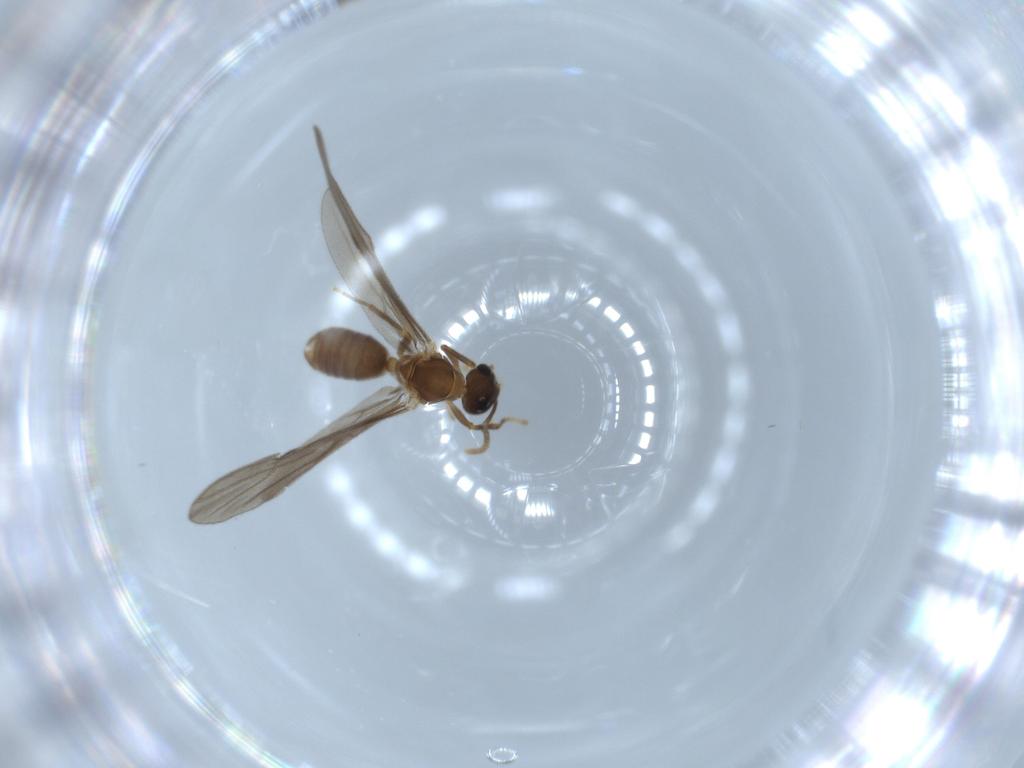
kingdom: Animalia
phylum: Arthropoda
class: Insecta
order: Hymenoptera
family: Formicidae
